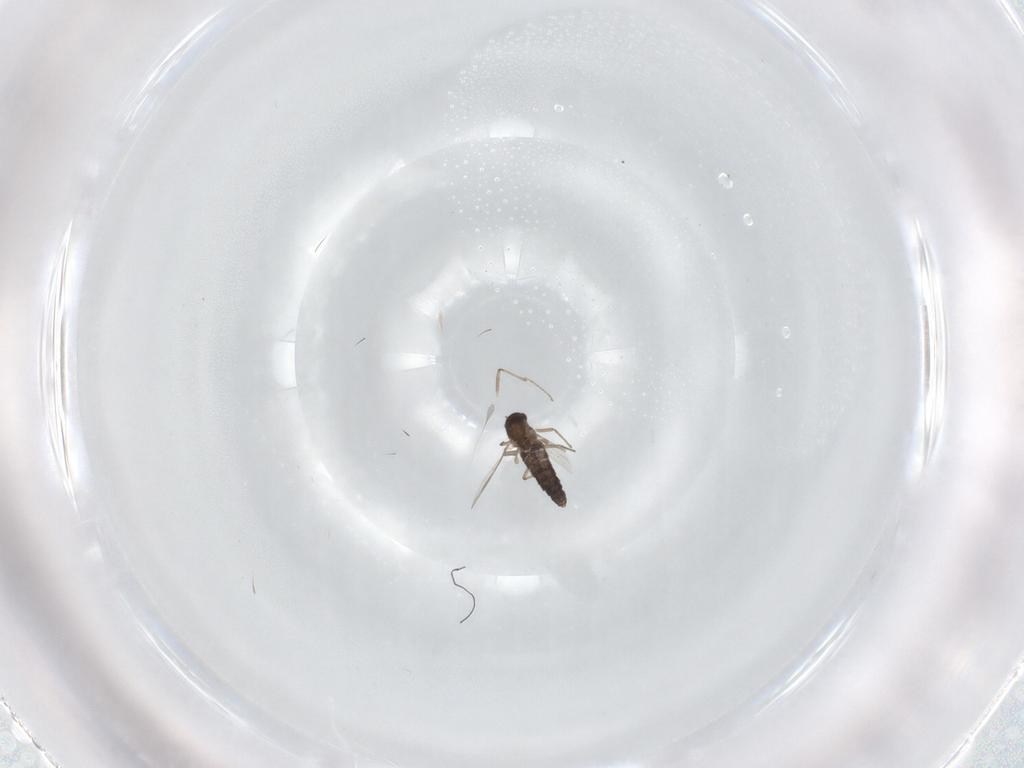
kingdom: Animalia
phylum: Arthropoda
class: Insecta
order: Diptera
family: Chironomidae
